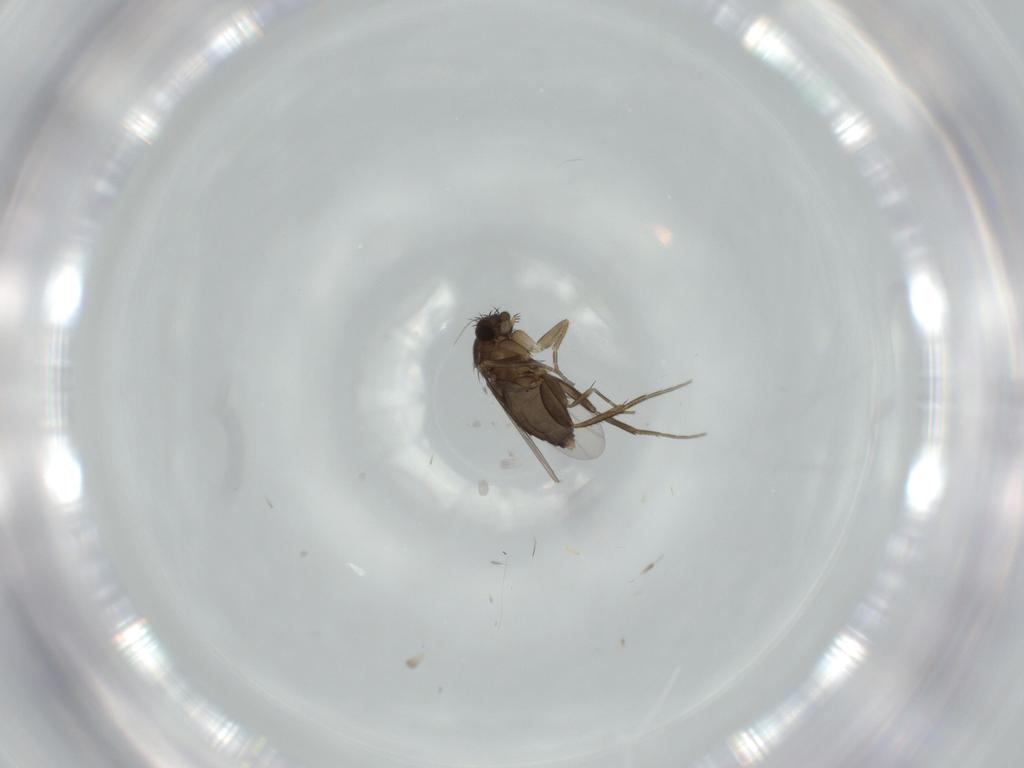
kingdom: Animalia
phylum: Arthropoda
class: Insecta
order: Diptera
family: Phoridae
